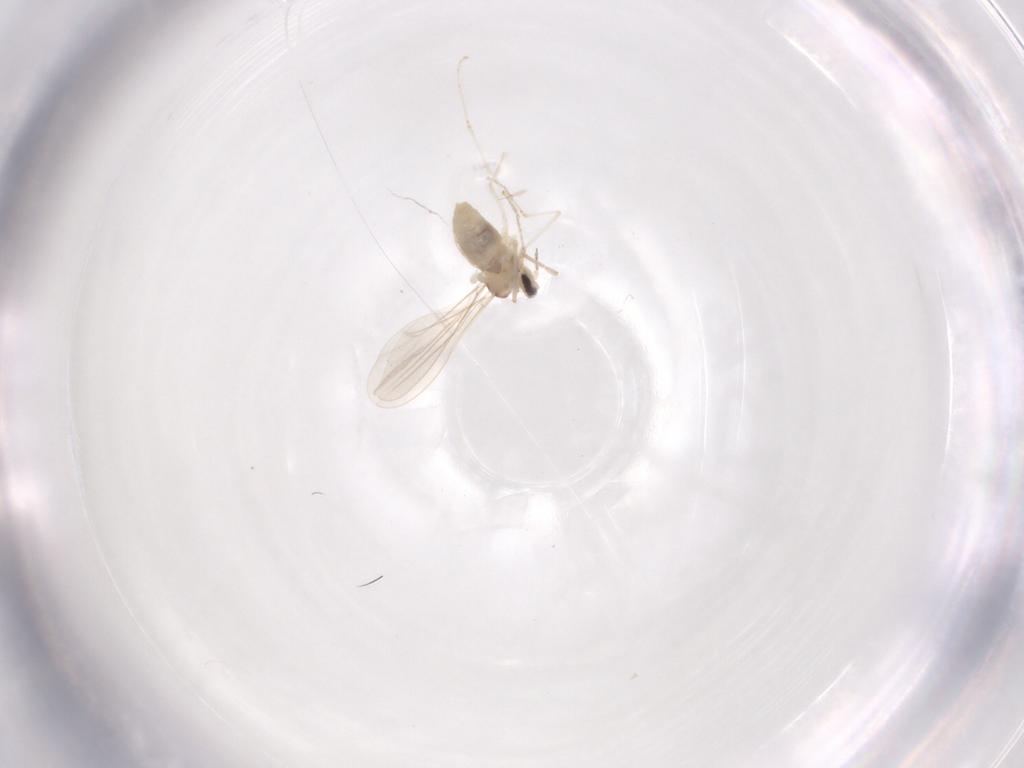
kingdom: Animalia
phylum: Arthropoda
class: Insecta
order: Diptera
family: Cecidomyiidae
